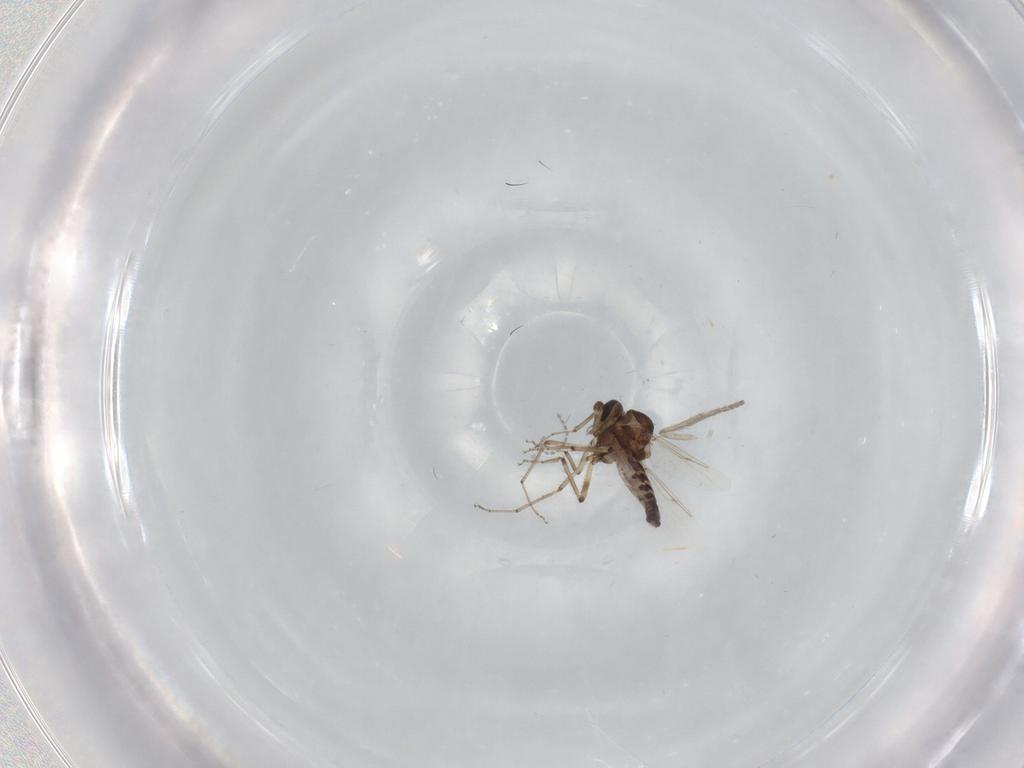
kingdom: Animalia
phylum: Arthropoda
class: Insecta
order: Diptera
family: Ceratopogonidae
